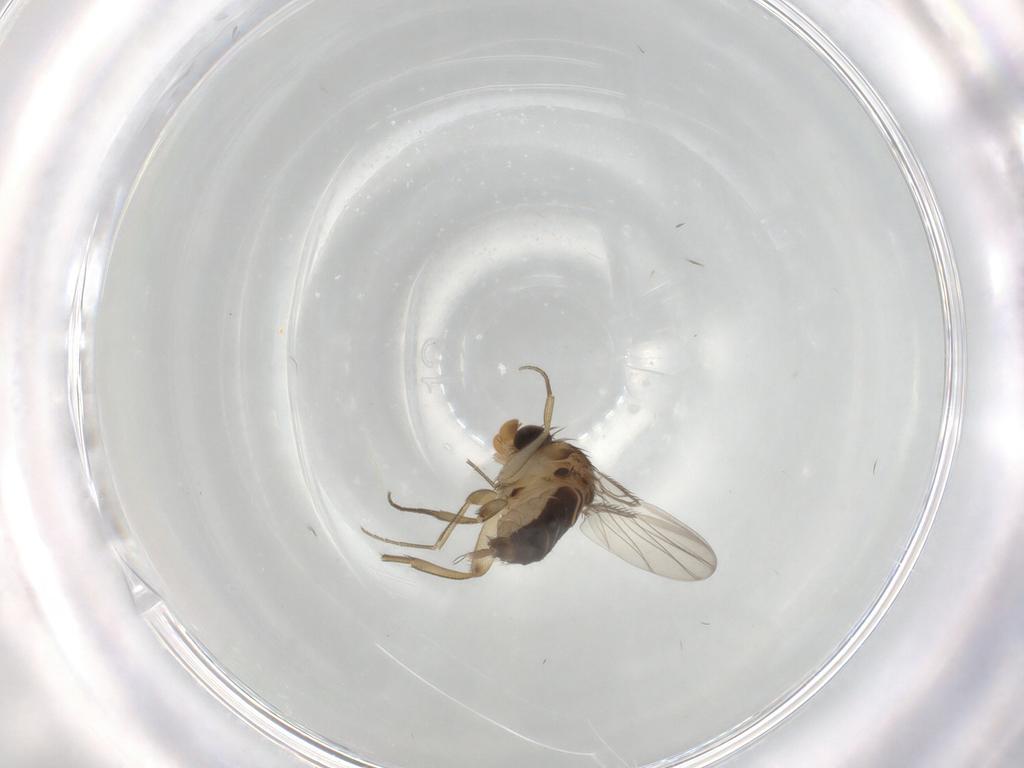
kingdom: Animalia
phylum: Arthropoda
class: Insecta
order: Diptera
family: Phoridae
